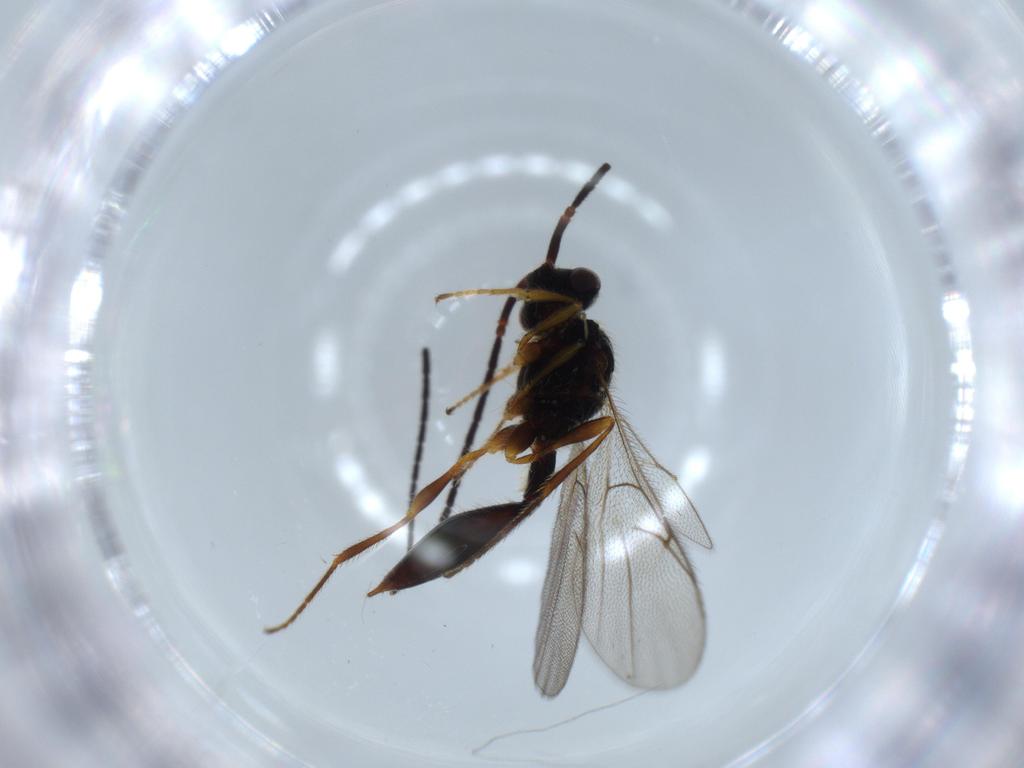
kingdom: Animalia
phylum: Arthropoda
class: Insecta
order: Hymenoptera
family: Diapriidae
